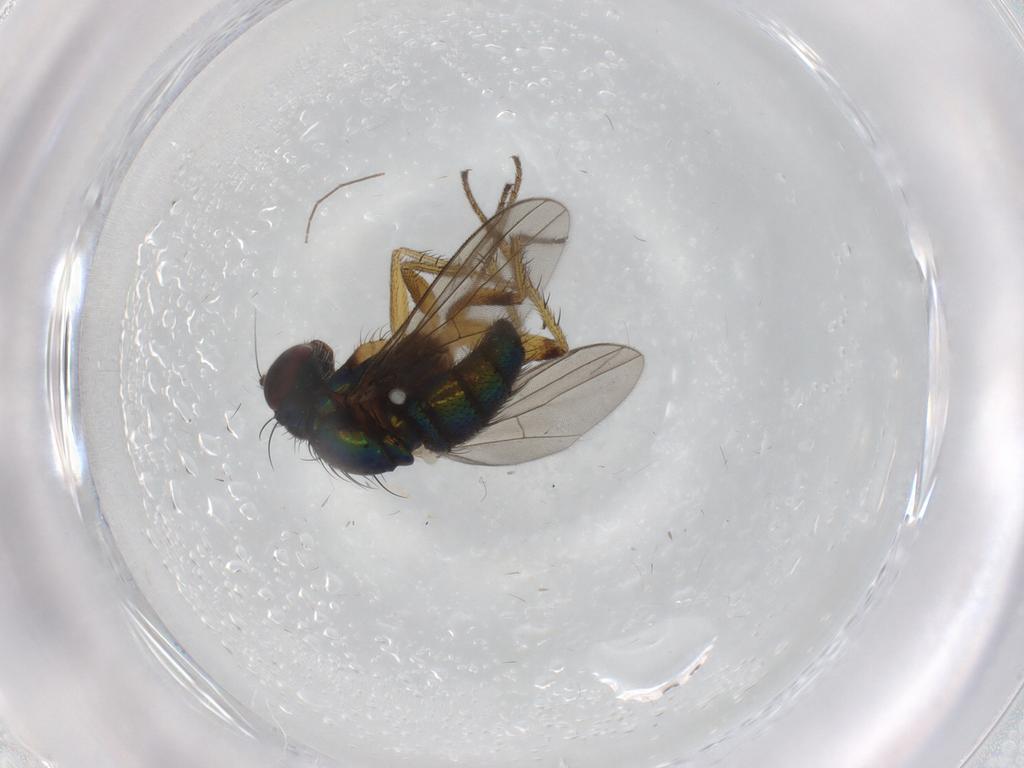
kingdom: Animalia
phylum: Arthropoda
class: Insecta
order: Diptera
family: Dolichopodidae
